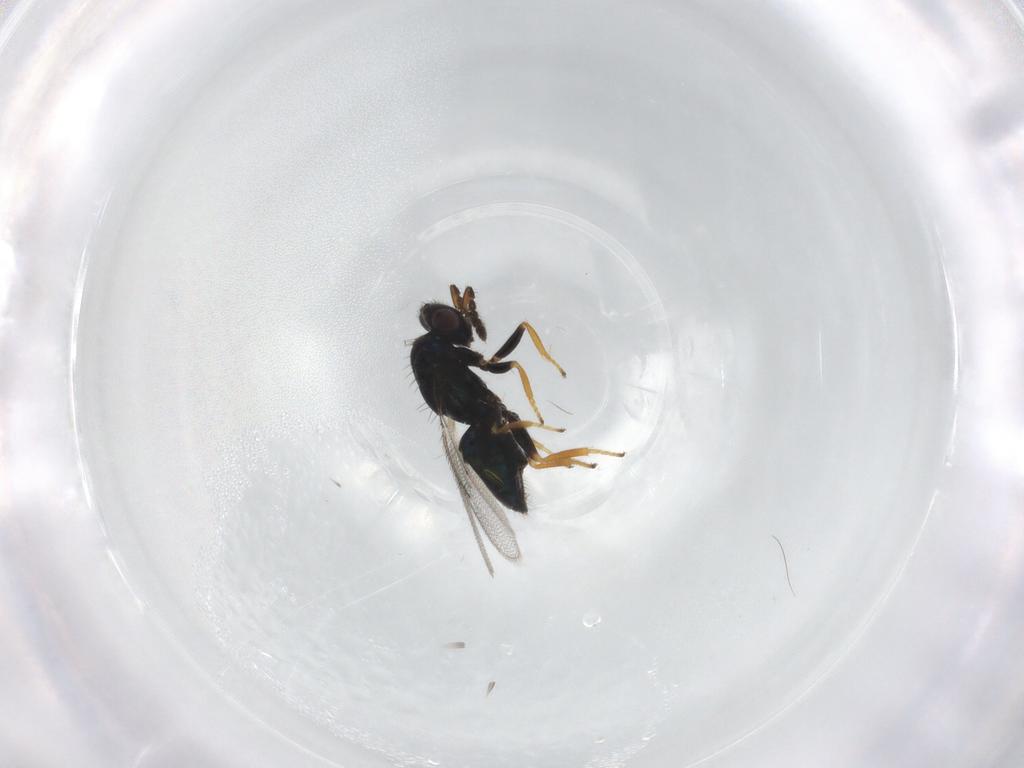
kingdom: Animalia
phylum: Arthropoda
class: Insecta
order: Hymenoptera
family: Eulophidae
